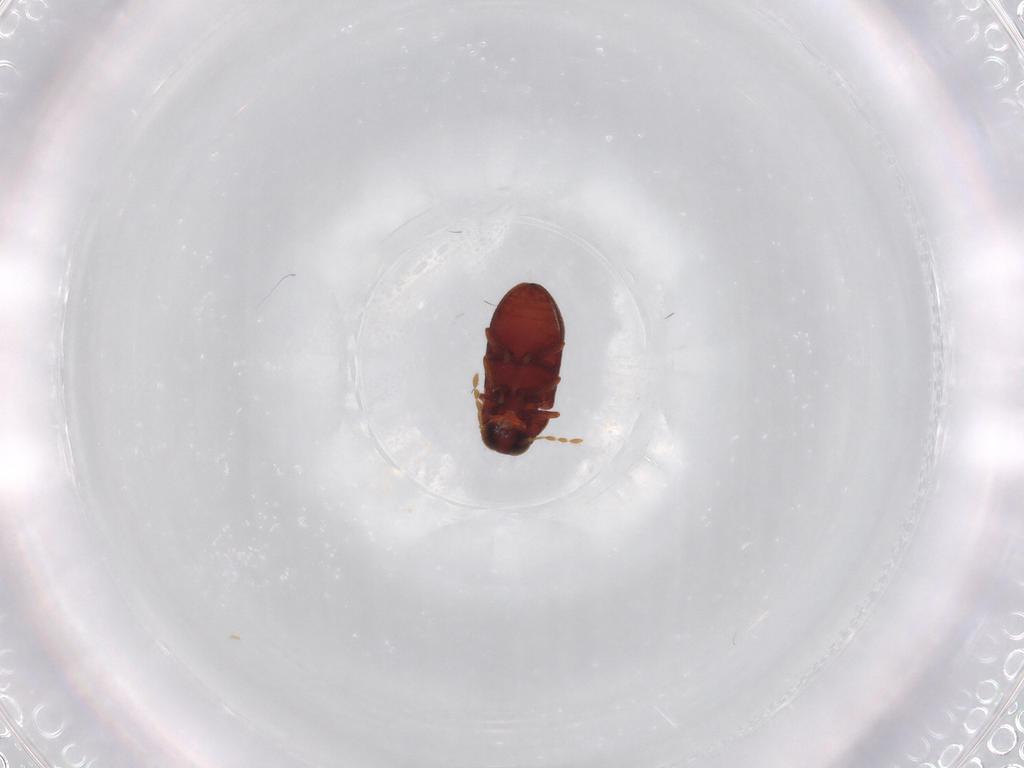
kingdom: Animalia
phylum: Arthropoda
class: Insecta
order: Coleoptera
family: Ptinidae
